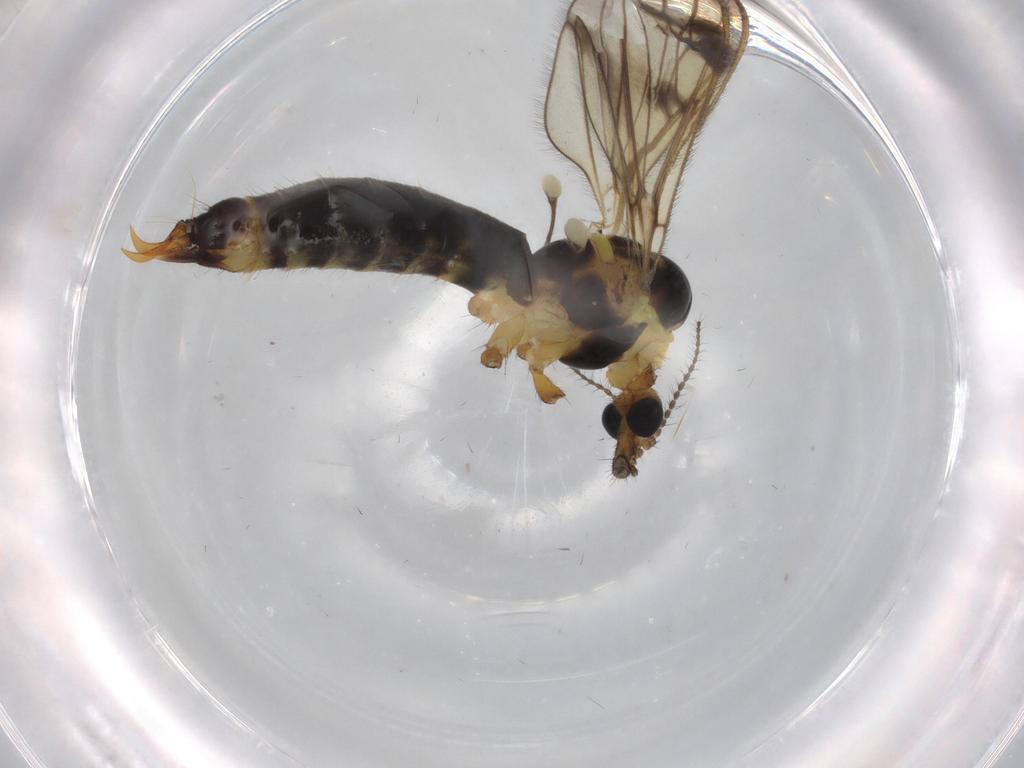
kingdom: Animalia
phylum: Arthropoda
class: Insecta
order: Diptera
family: Limoniidae
